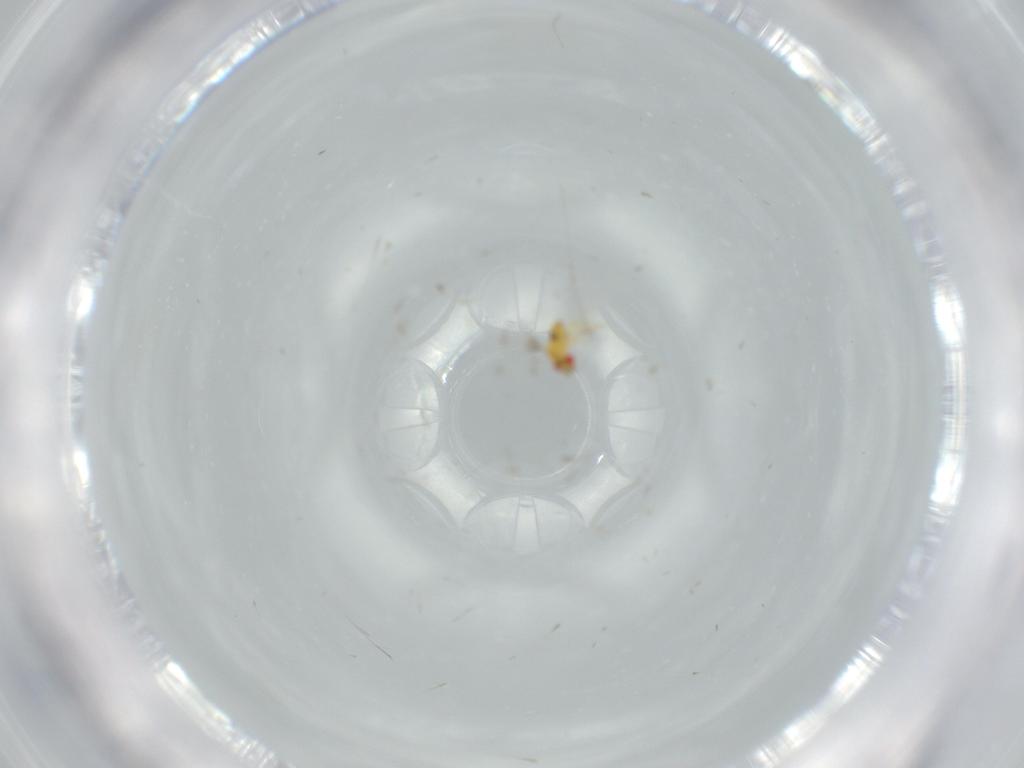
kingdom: Animalia
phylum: Arthropoda
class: Insecta
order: Hymenoptera
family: Trichogrammatidae
